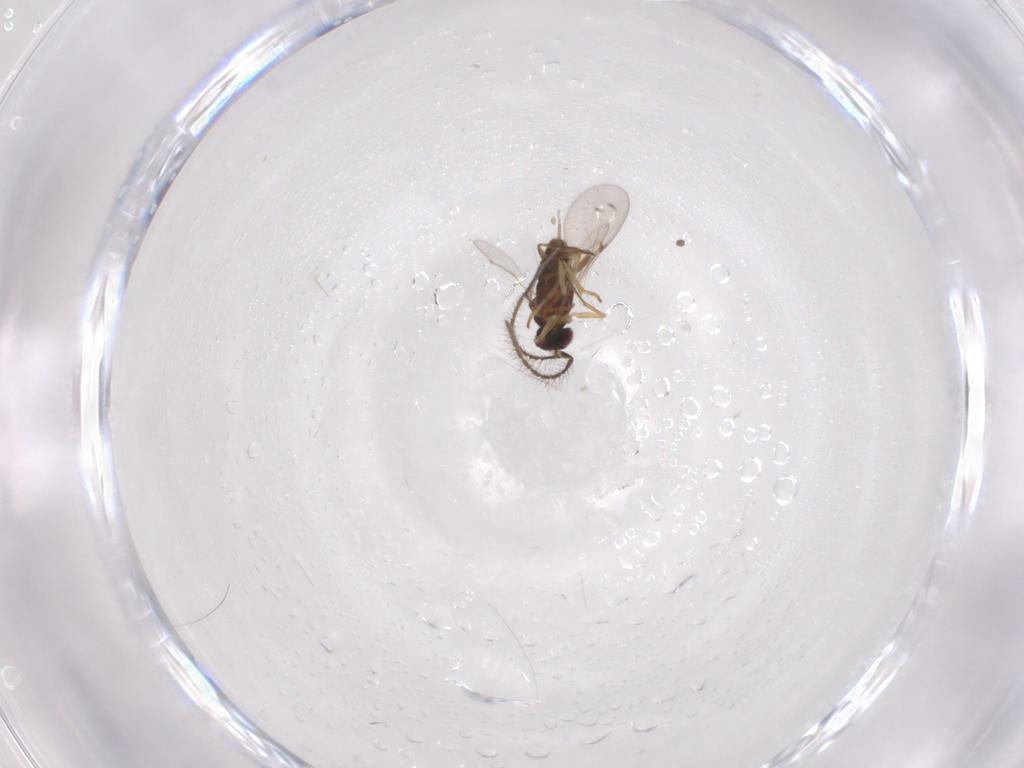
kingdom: Animalia
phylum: Arthropoda
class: Insecta
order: Hymenoptera
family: Encyrtidae
